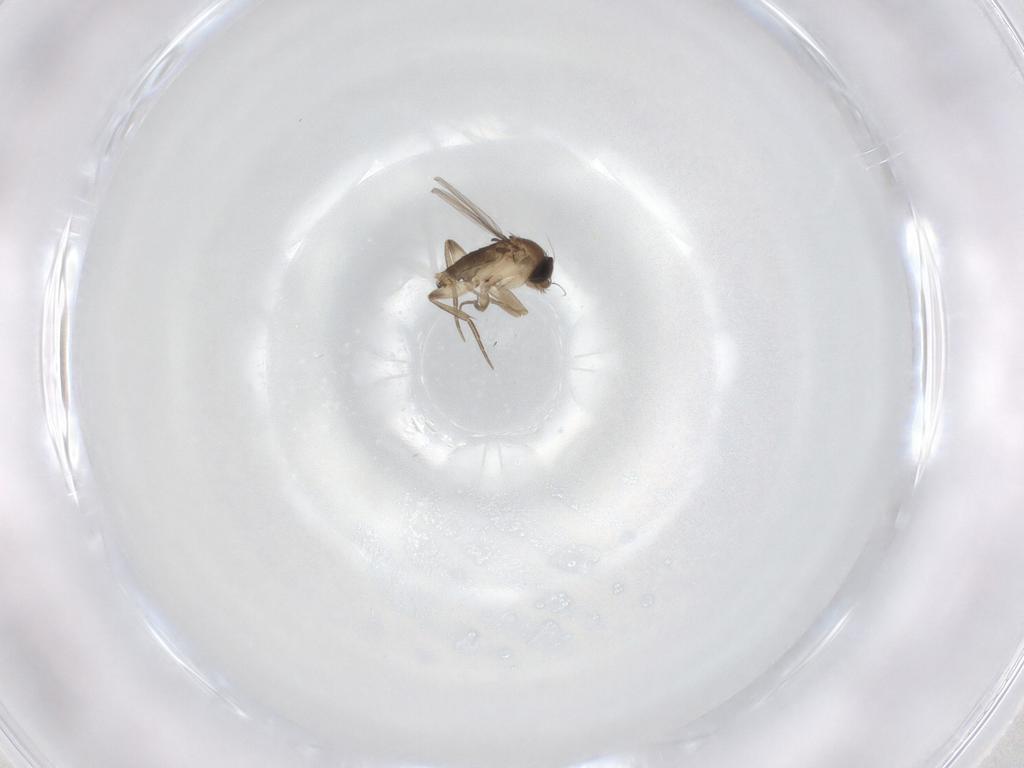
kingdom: Animalia
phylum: Arthropoda
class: Insecta
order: Diptera
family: Phoridae
